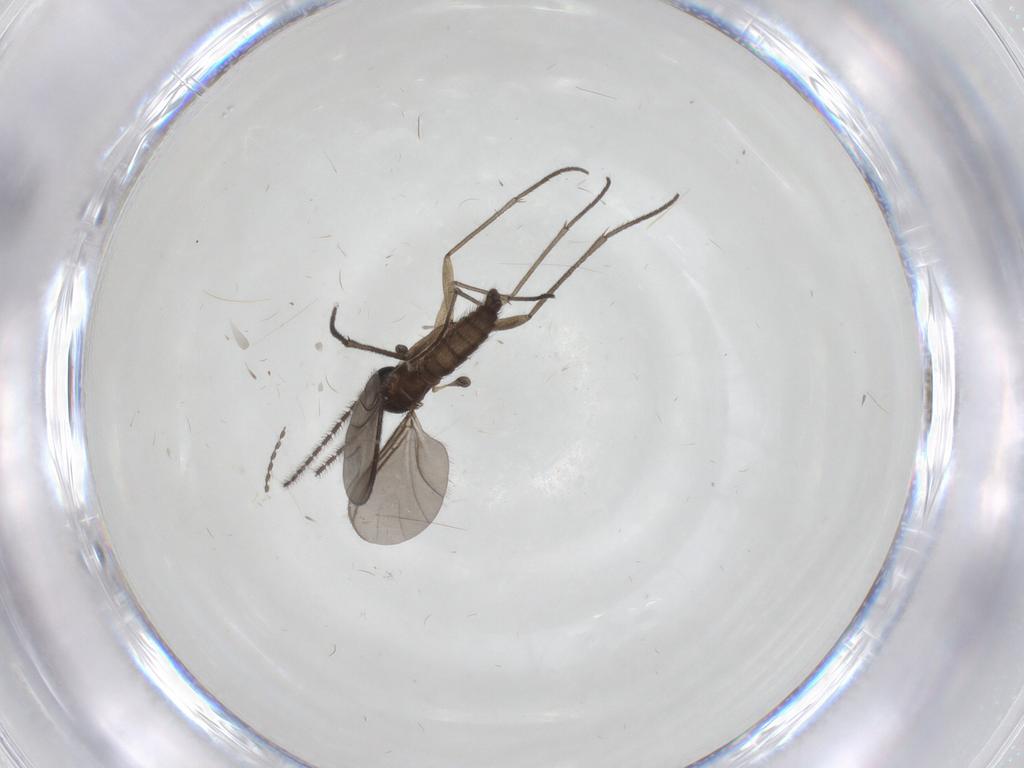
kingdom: Animalia
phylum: Arthropoda
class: Insecta
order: Diptera
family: Sciaridae
